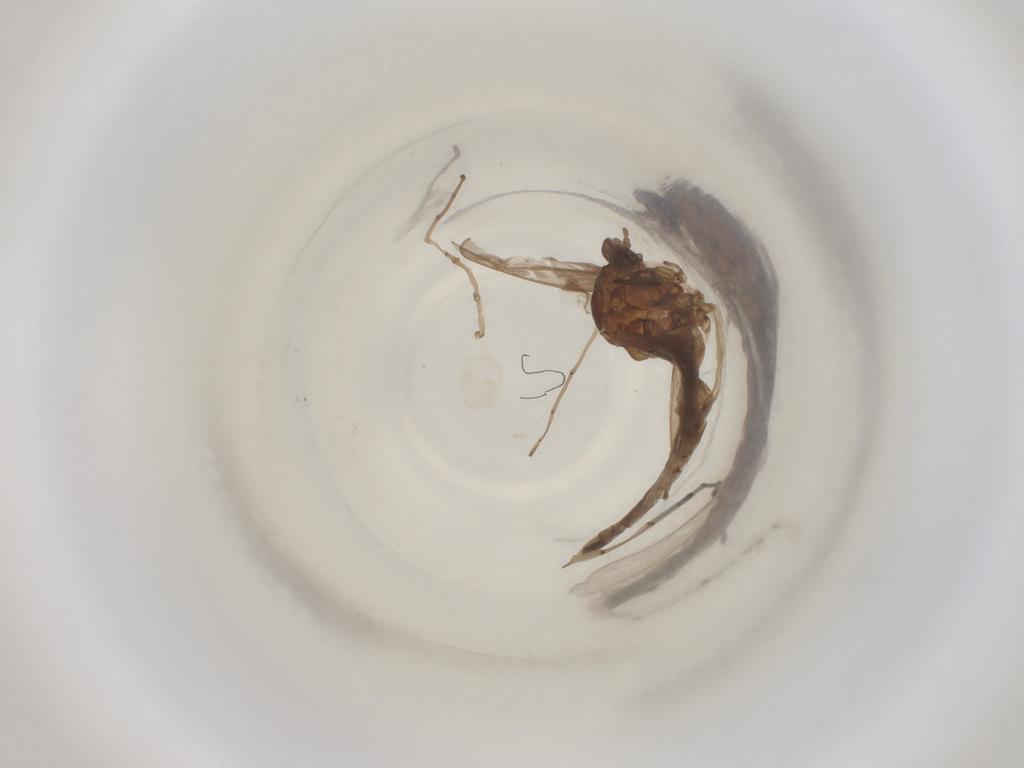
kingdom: Animalia
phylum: Arthropoda
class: Insecta
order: Diptera
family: Cecidomyiidae
